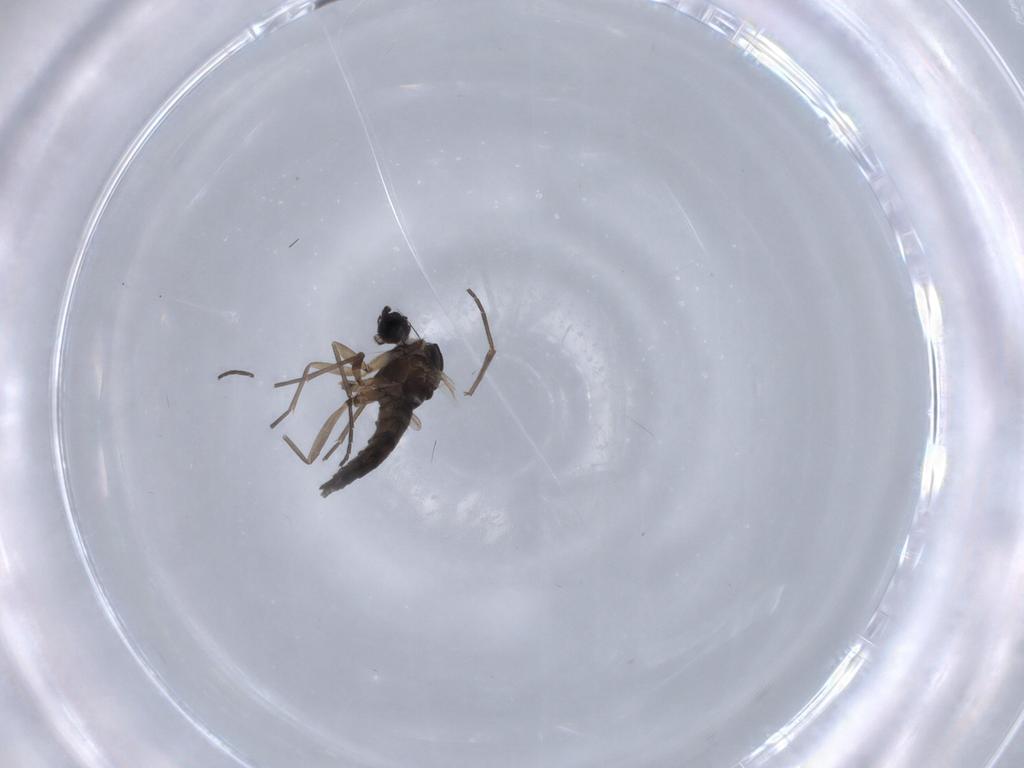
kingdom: Animalia
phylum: Arthropoda
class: Insecta
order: Diptera
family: Sciaridae
